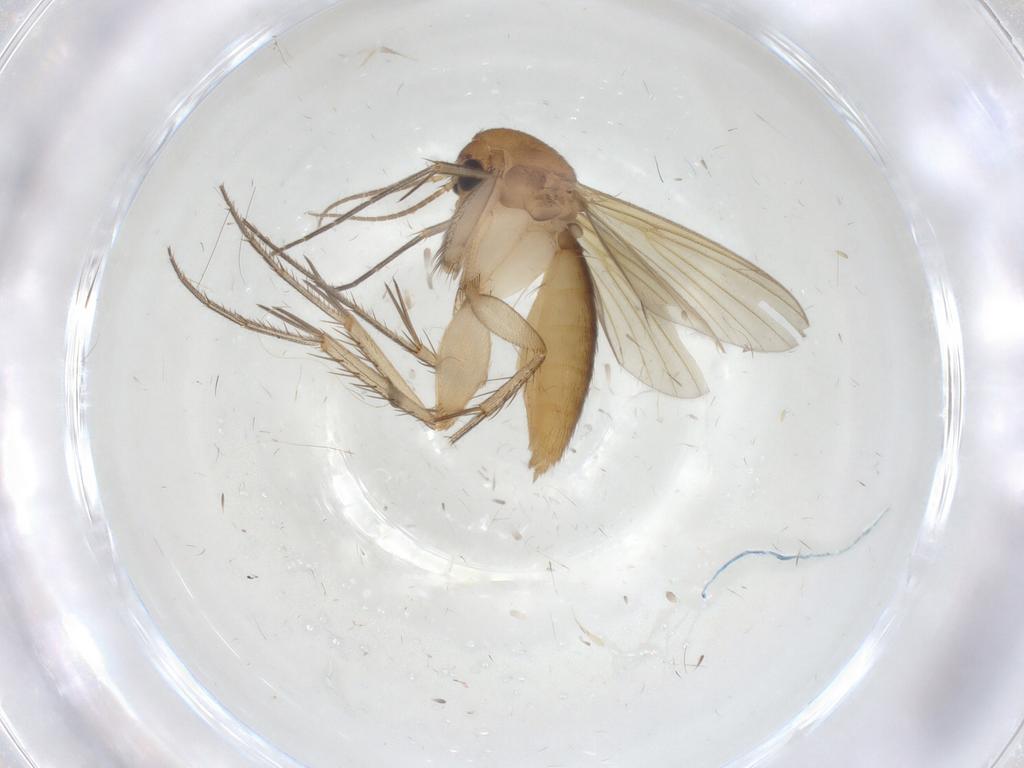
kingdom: Animalia
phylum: Arthropoda
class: Insecta
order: Diptera
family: Mycetophilidae
